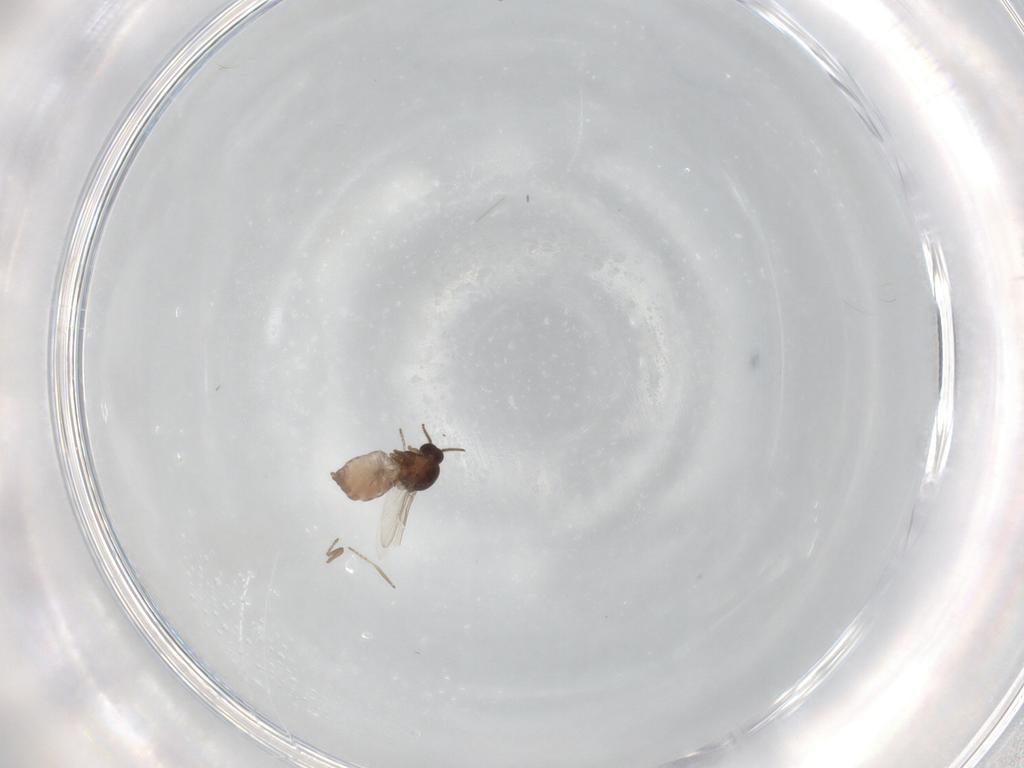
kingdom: Animalia
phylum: Arthropoda
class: Insecta
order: Diptera
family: Ceratopogonidae
